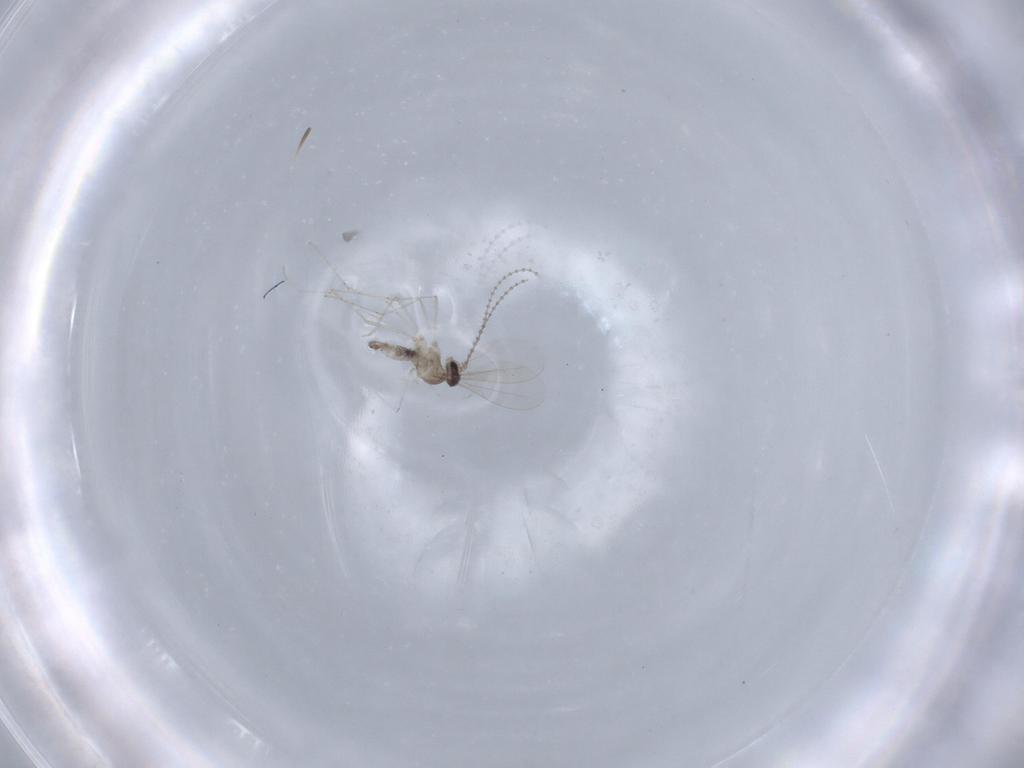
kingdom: Animalia
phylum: Arthropoda
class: Insecta
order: Diptera
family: Cecidomyiidae
